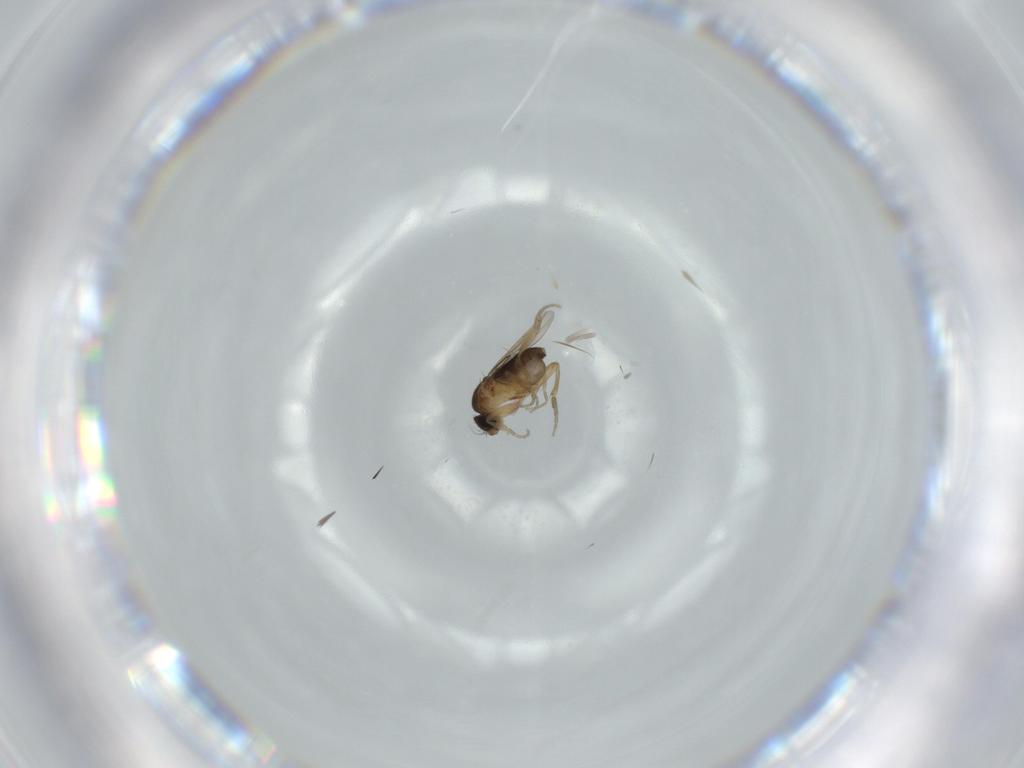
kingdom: Animalia
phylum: Arthropoda
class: Insecta
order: Diptera
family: Phoridae
